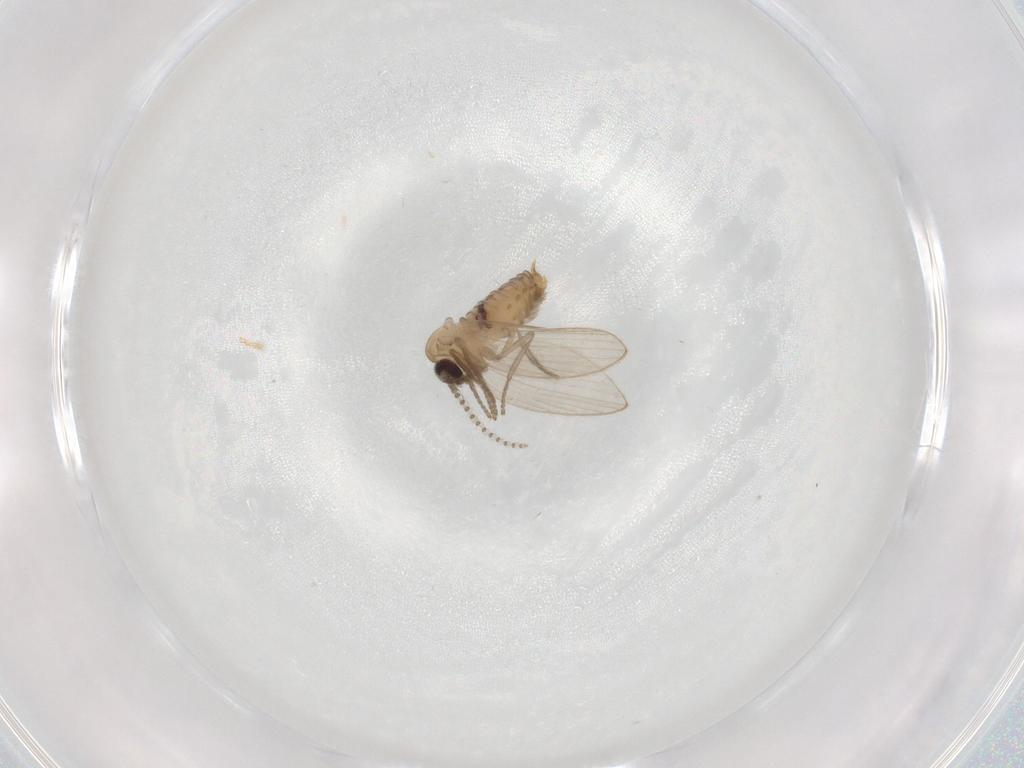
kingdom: Animalia
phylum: Arthropoda
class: Insecta
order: Diptera
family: Psychodidae
